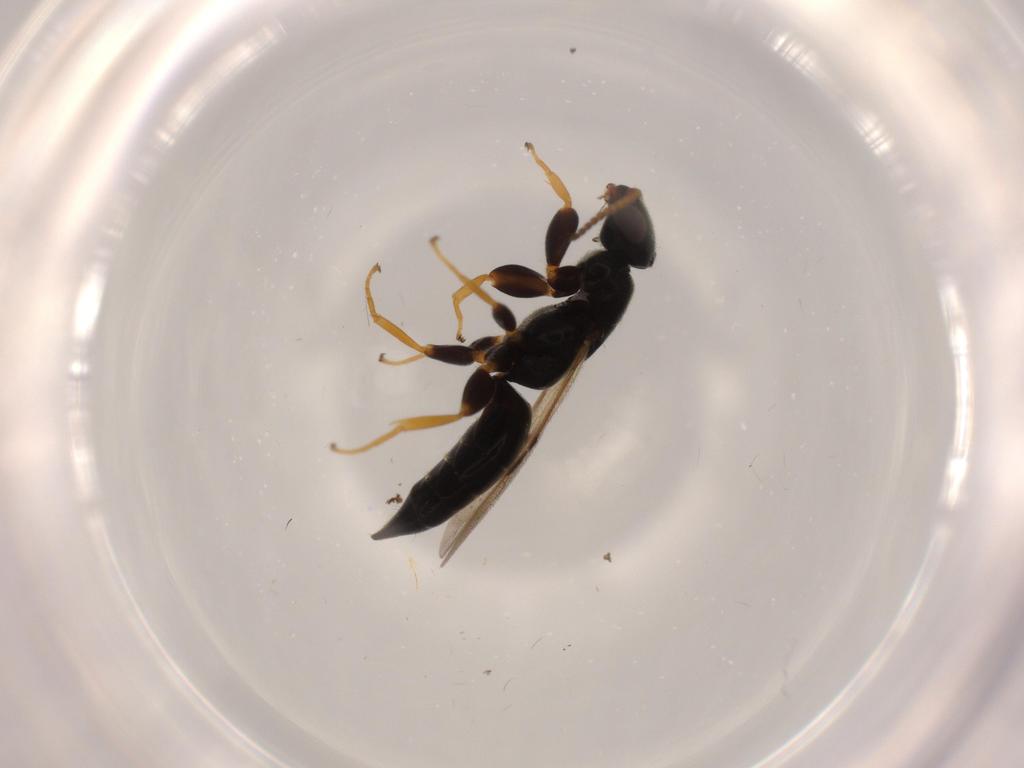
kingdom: Animalia
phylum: Arthropoda
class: Insecta
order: Hymenoptera
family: Bethylidae
